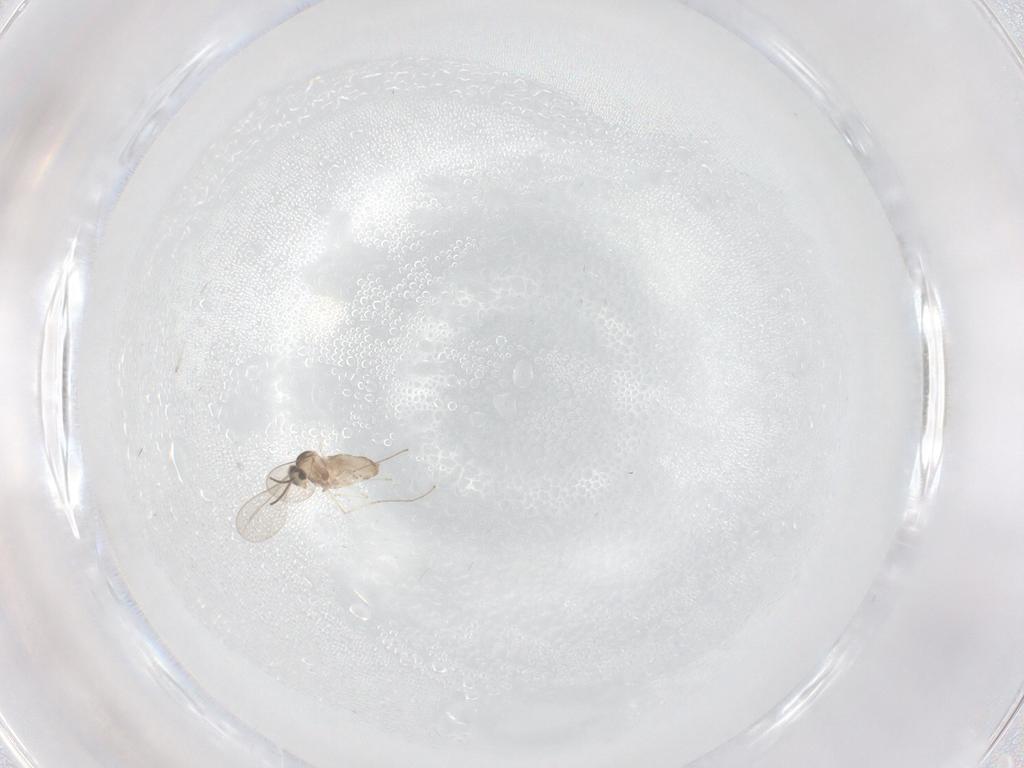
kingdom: Animalia
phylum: Arthropoda
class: Insecta
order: Diptera
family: Cecidomyiidae
